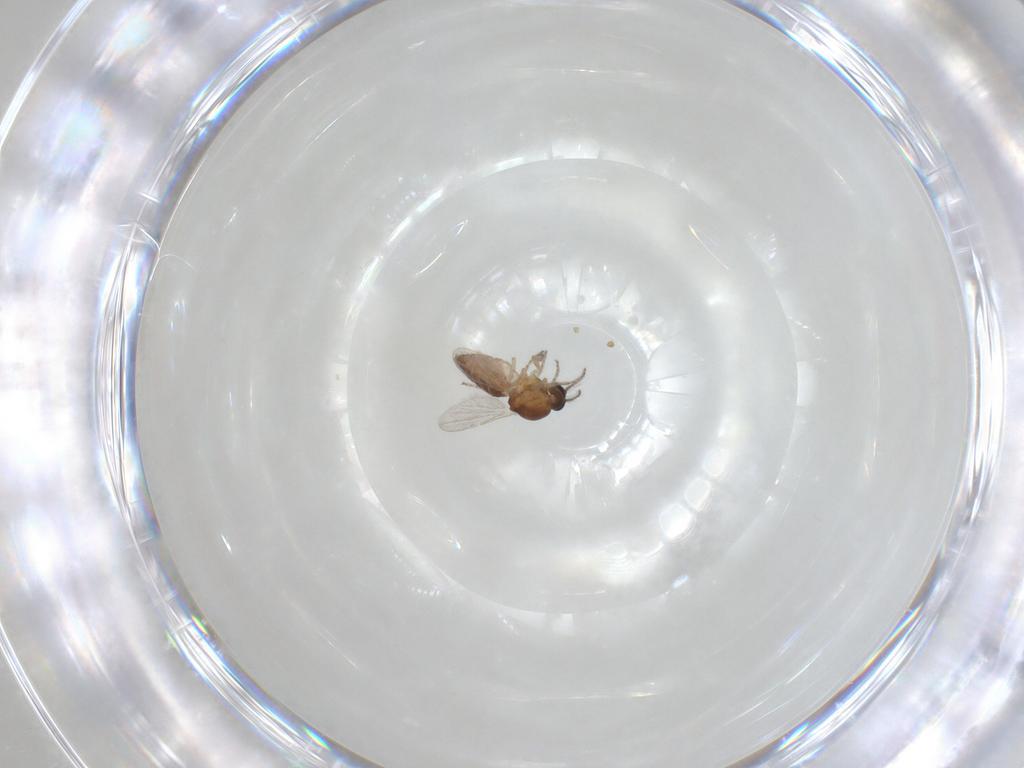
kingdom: Animalia
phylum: Arthropoda
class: Insecta
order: Diptera
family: Ceratopogonidae
